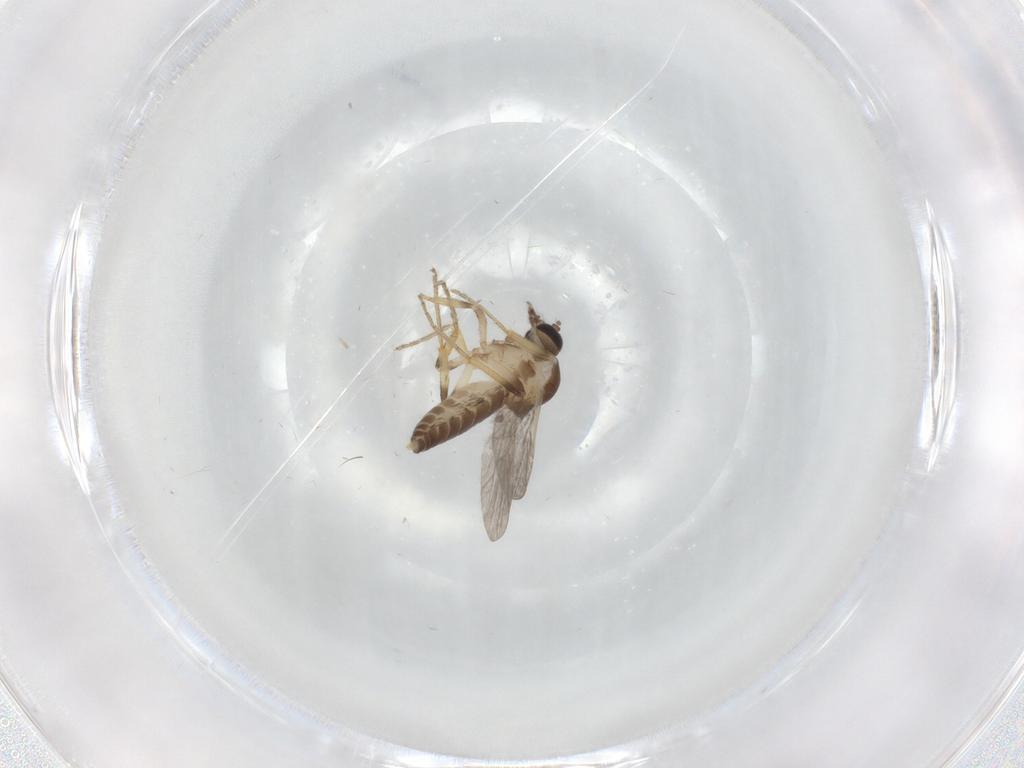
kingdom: Animalia
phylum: Arthropoda
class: Insecta
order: Diptera
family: Ceratopogonidae
